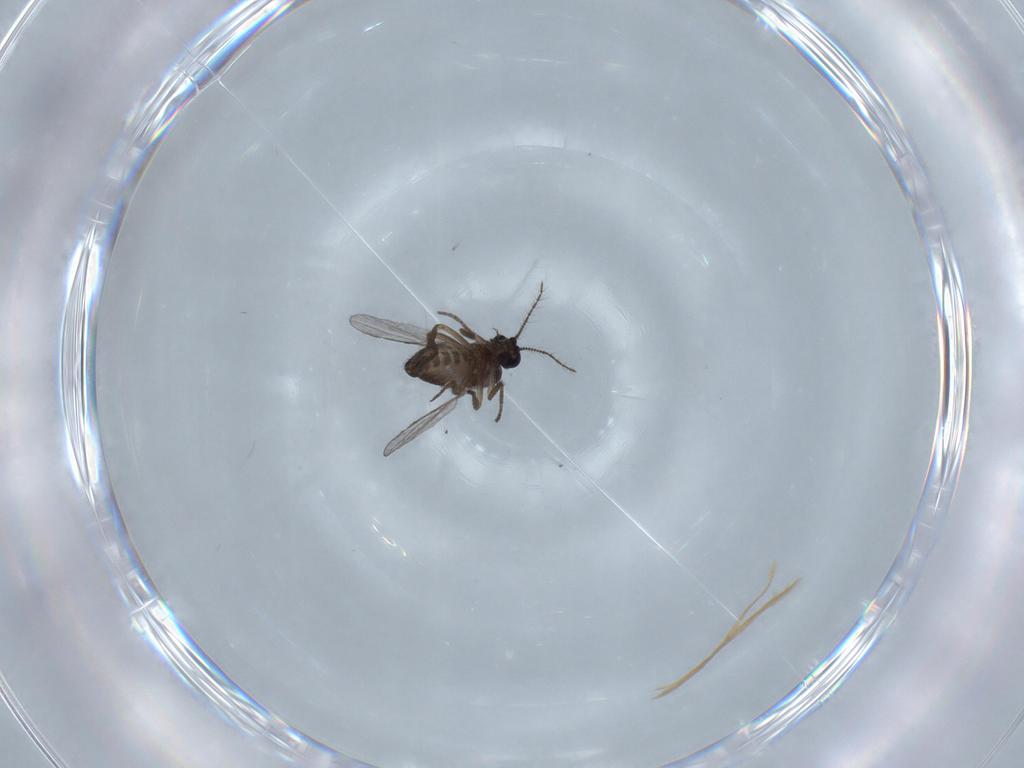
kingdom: Animalia
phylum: Arthropoda
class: Insecta
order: Diptera
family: Ceratopogonidae
